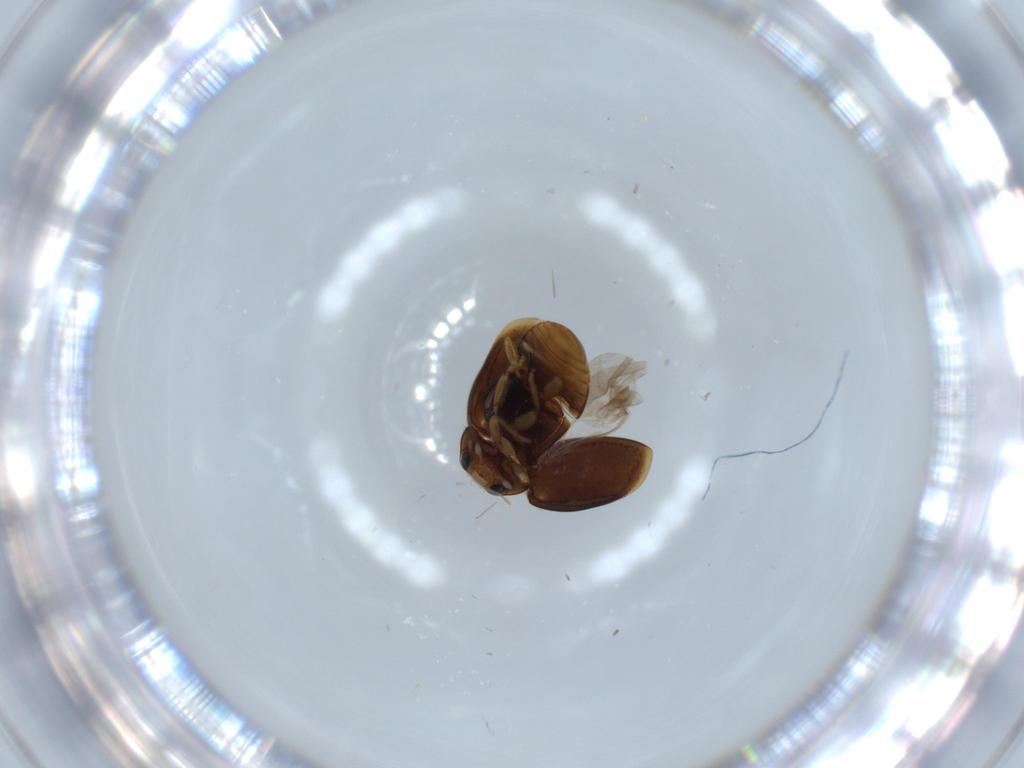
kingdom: Animalia
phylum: Arthropoda
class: Insecta
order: Coleoptera
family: Coccinellidae
